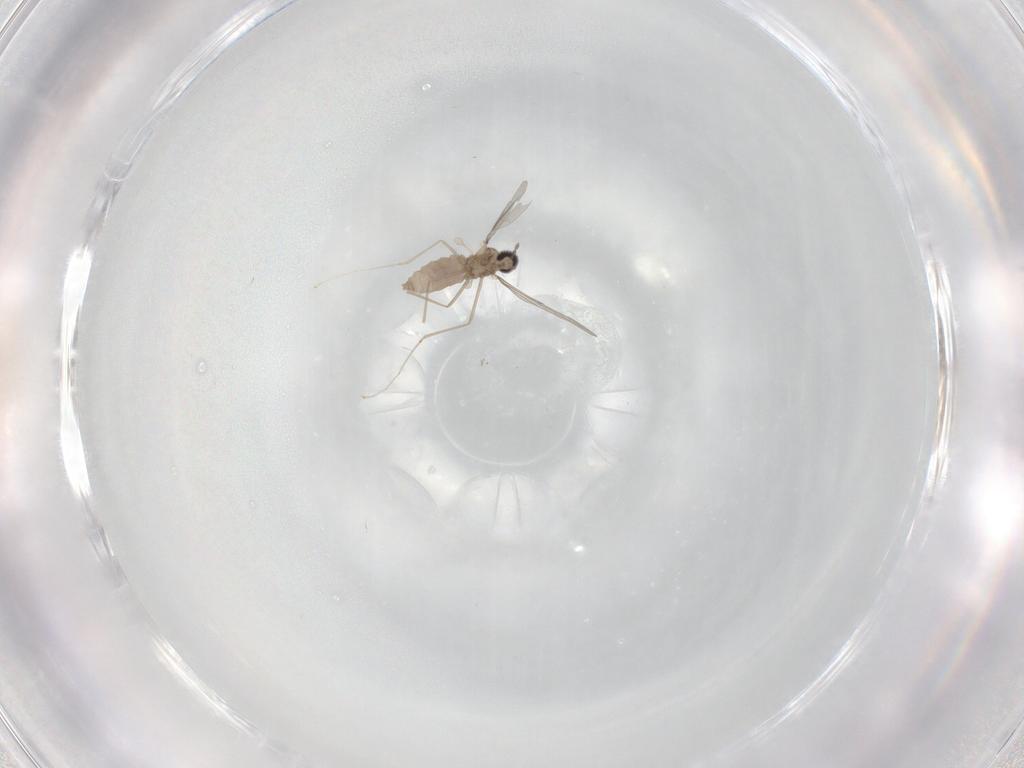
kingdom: Animalia
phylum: Arthropoda
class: Insecta
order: Diptera
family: Cecidomyiidae
